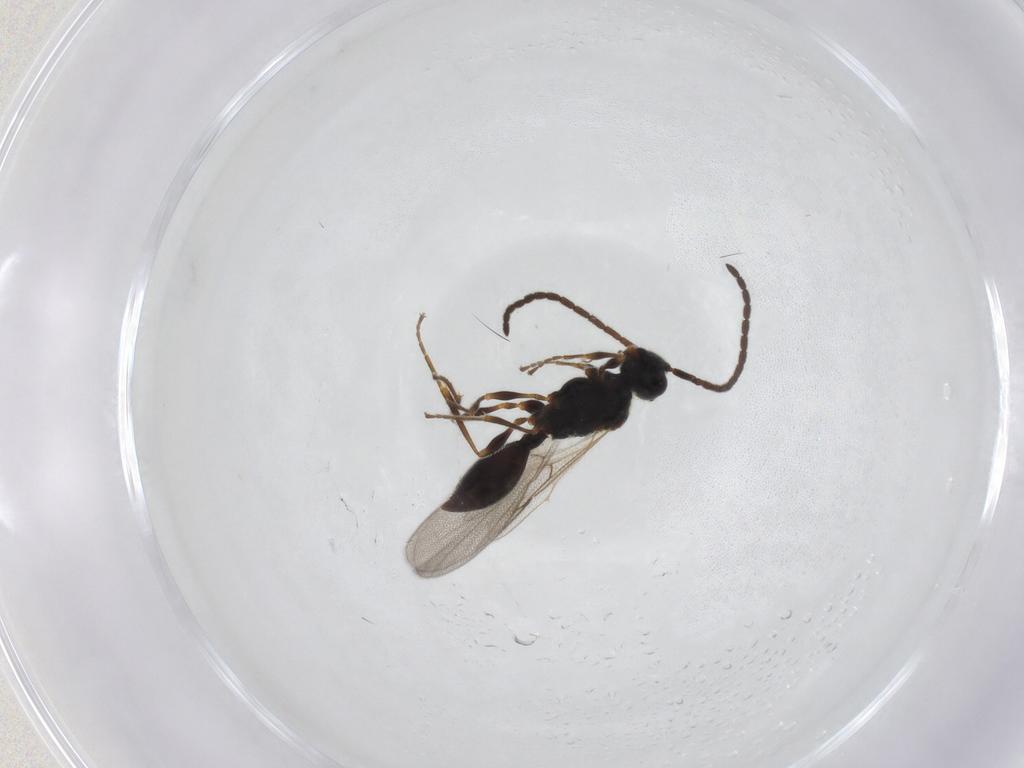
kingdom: Animalia
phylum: Arthropoda
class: Insecta
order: Hymenoptera
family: Diapriidae
